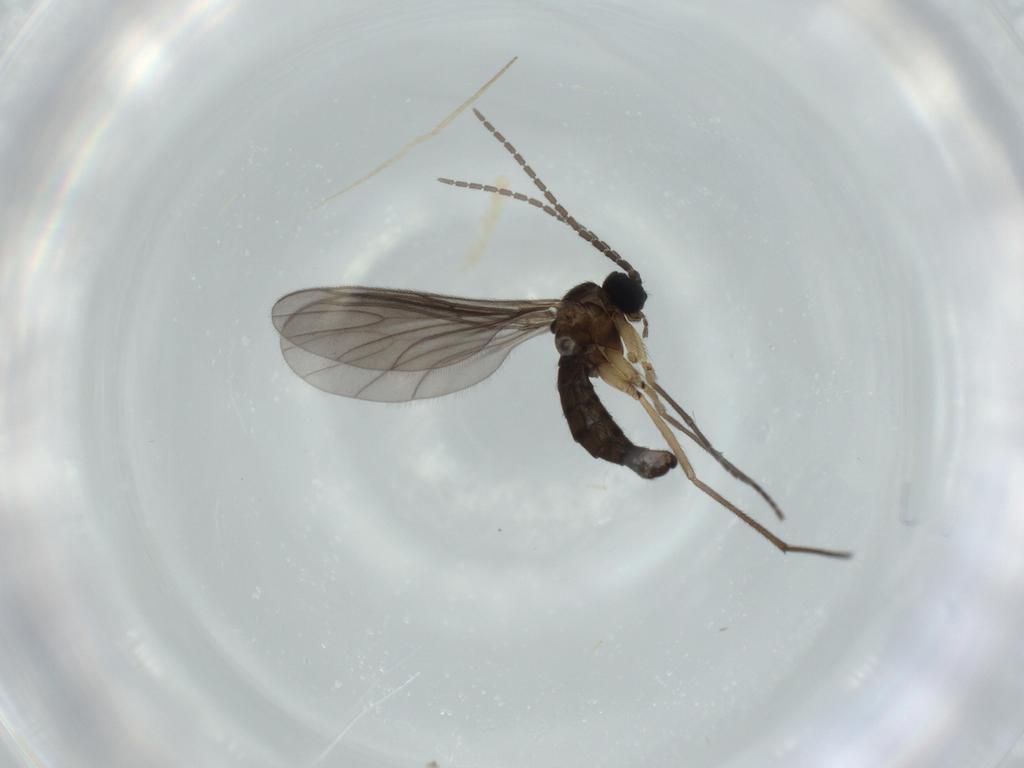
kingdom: Animalia
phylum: Arthropoda
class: Insecta
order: Diptera
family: Sciaridae
